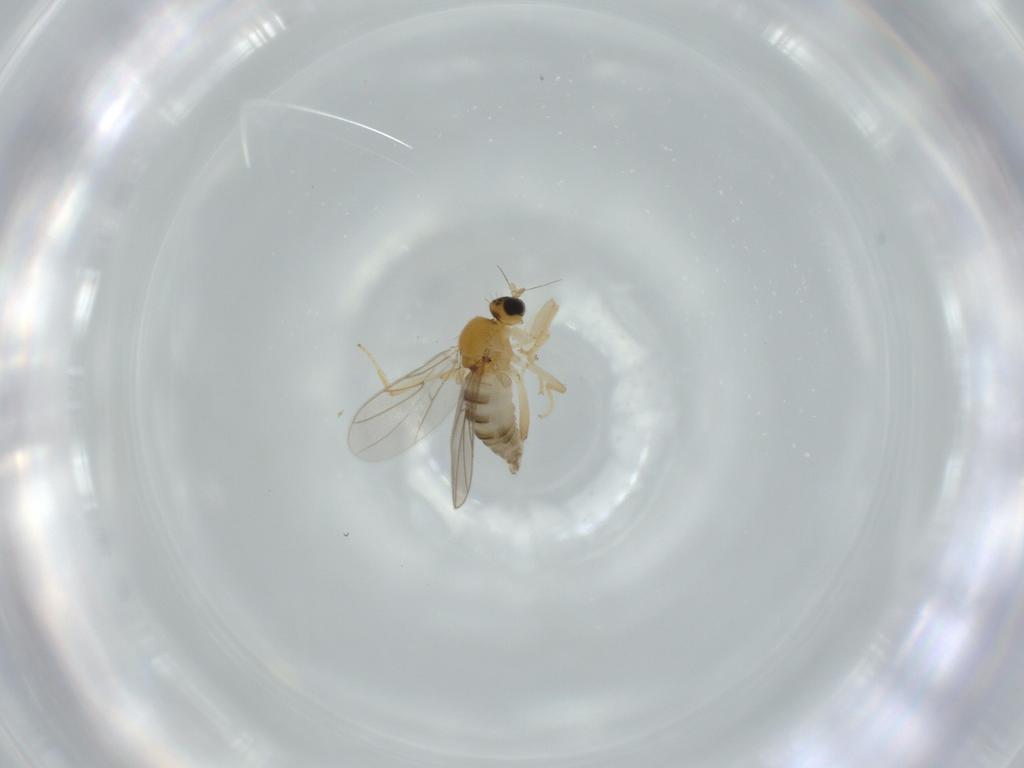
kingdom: Animalia
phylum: Arthropoda
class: Insecta
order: Diptera
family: Hybotidae
